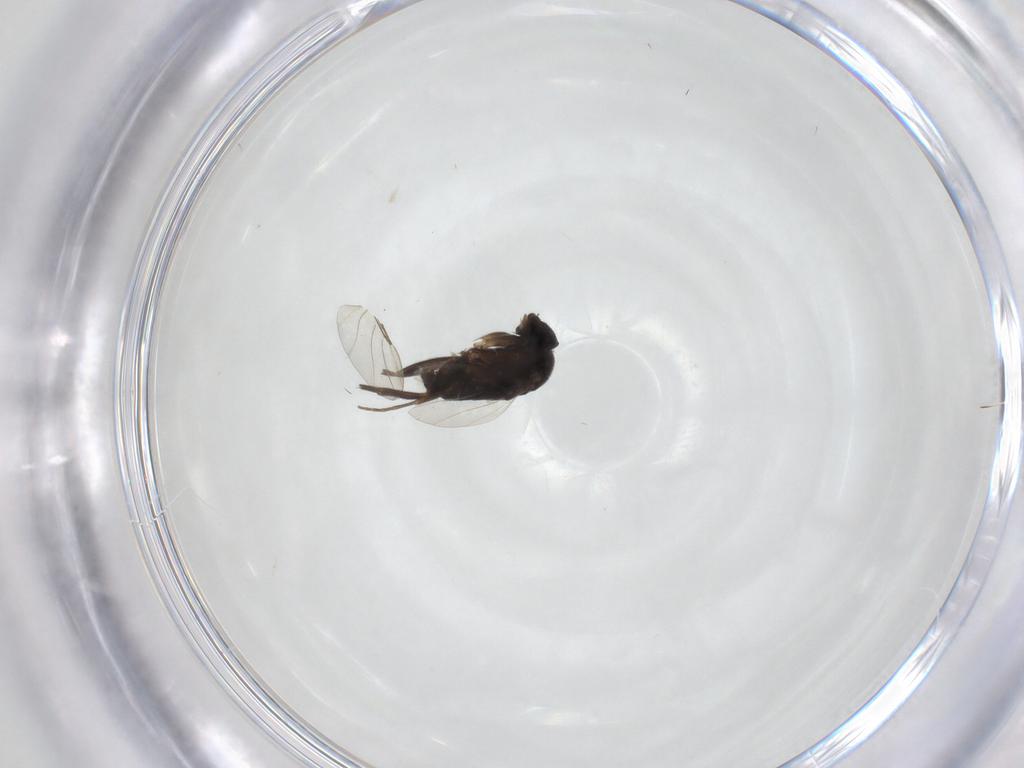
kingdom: Animalia
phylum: Arthropoda
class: Insecta
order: Diptera
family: Phoridae
